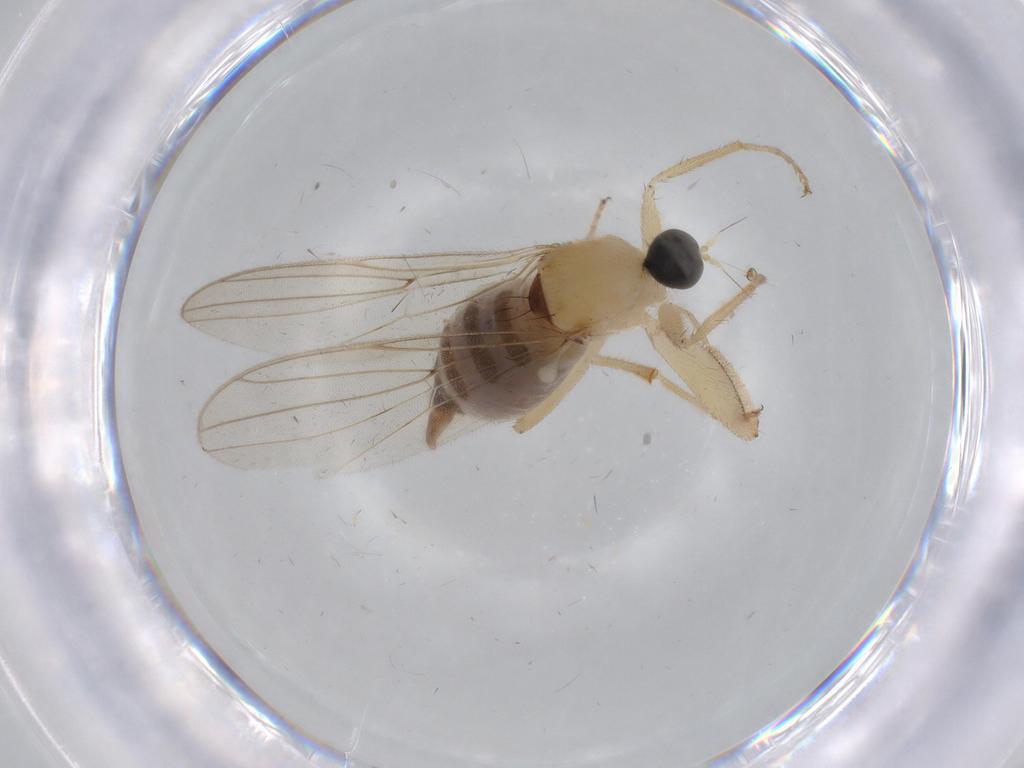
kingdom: Animalia
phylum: Arthropoda
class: Insecta
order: Diptera
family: Hybotidae
